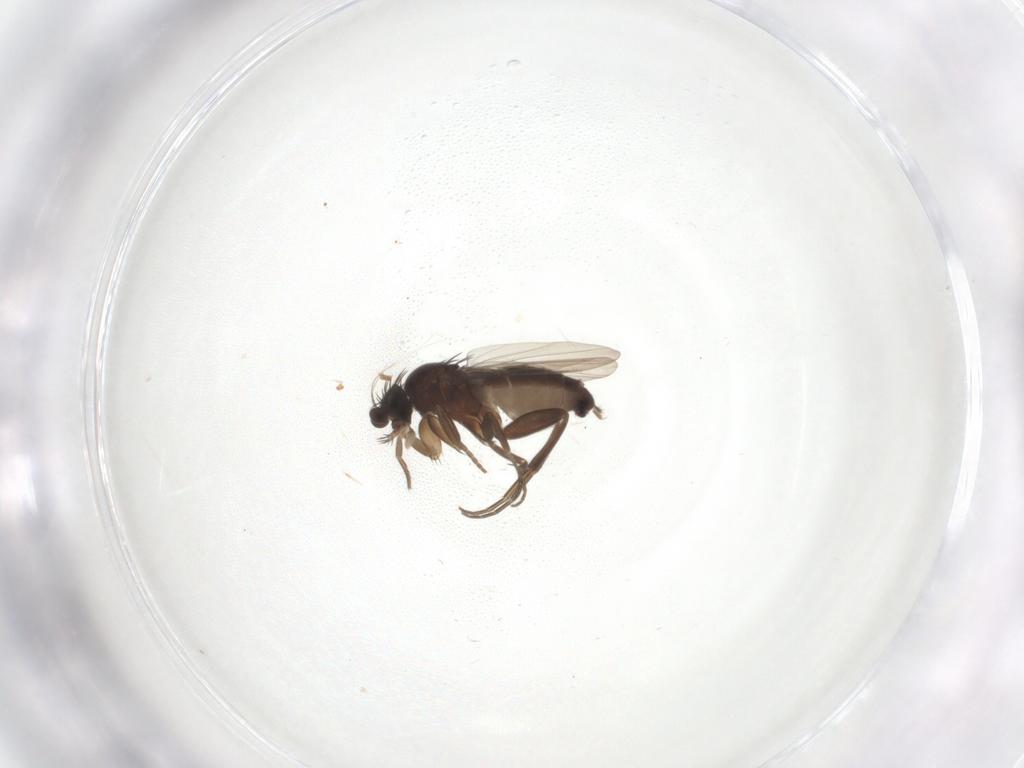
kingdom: Animalia
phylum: Arthropoda
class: Insecta
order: Diptera
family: Phoridae
